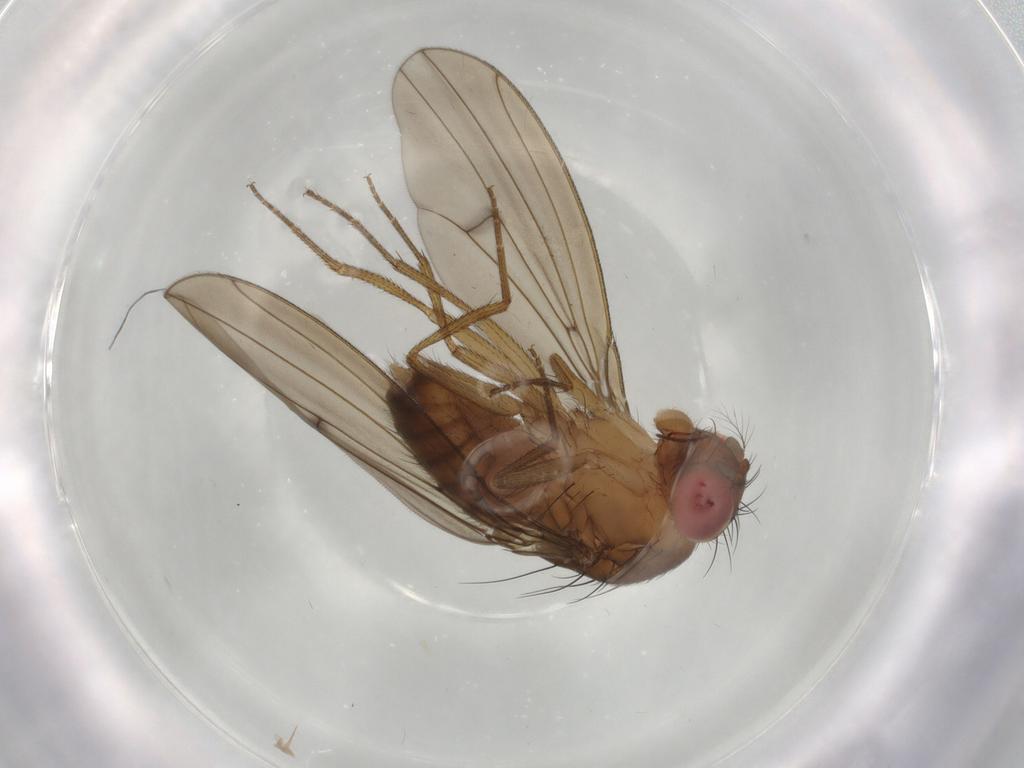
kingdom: Animalia
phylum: Arthropoda
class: Insecta
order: Diptera
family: Drosophilidae
